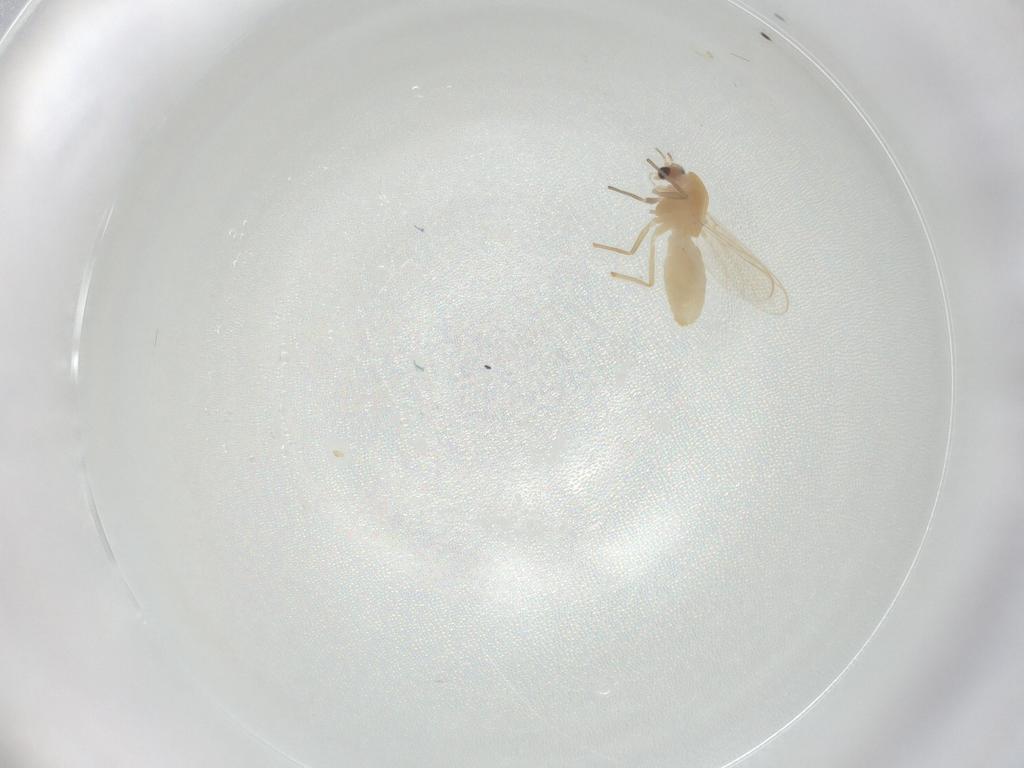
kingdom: Animalia
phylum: Arthropoda
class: Insecta
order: Diptera
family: Chironomidae
